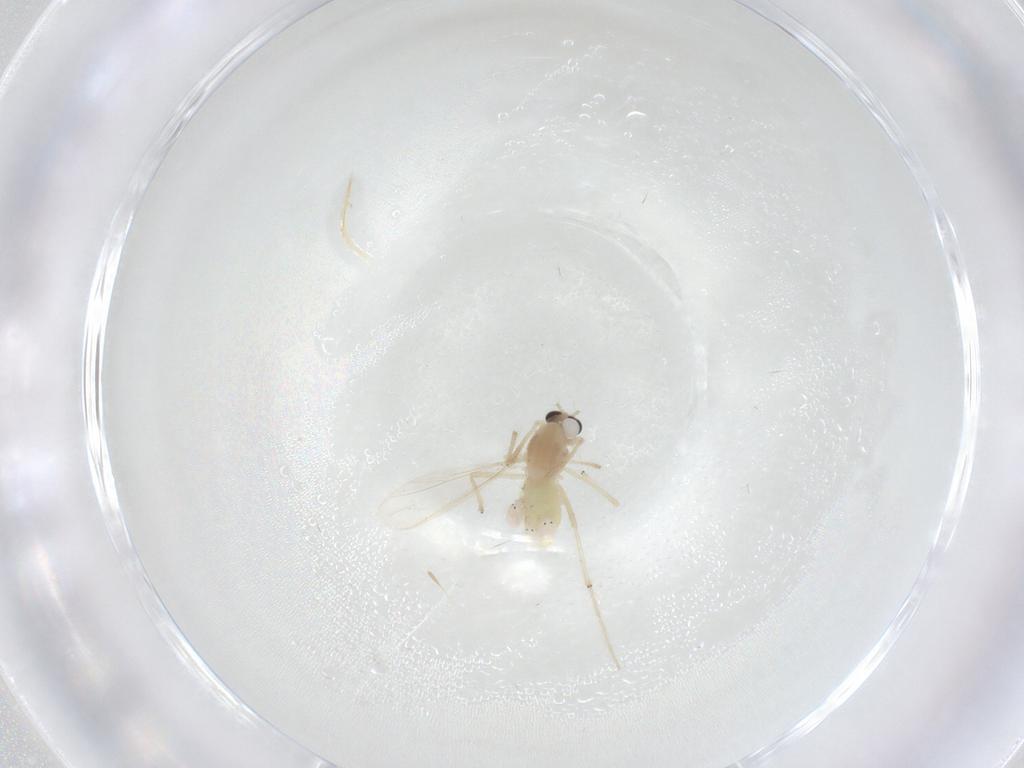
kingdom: Animalia
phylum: Arthropoda
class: Insecta
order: Diptera
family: Chironomidae
